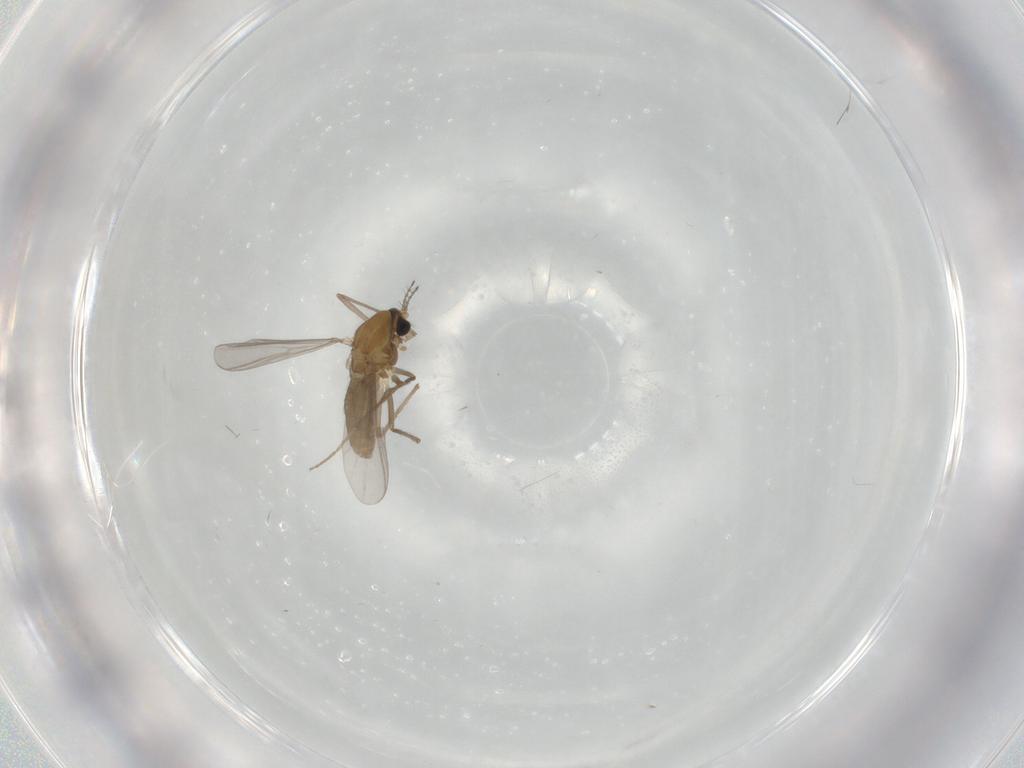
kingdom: Animalia
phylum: Arthropoda
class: Insecta
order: Diptera
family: Chironomidae
